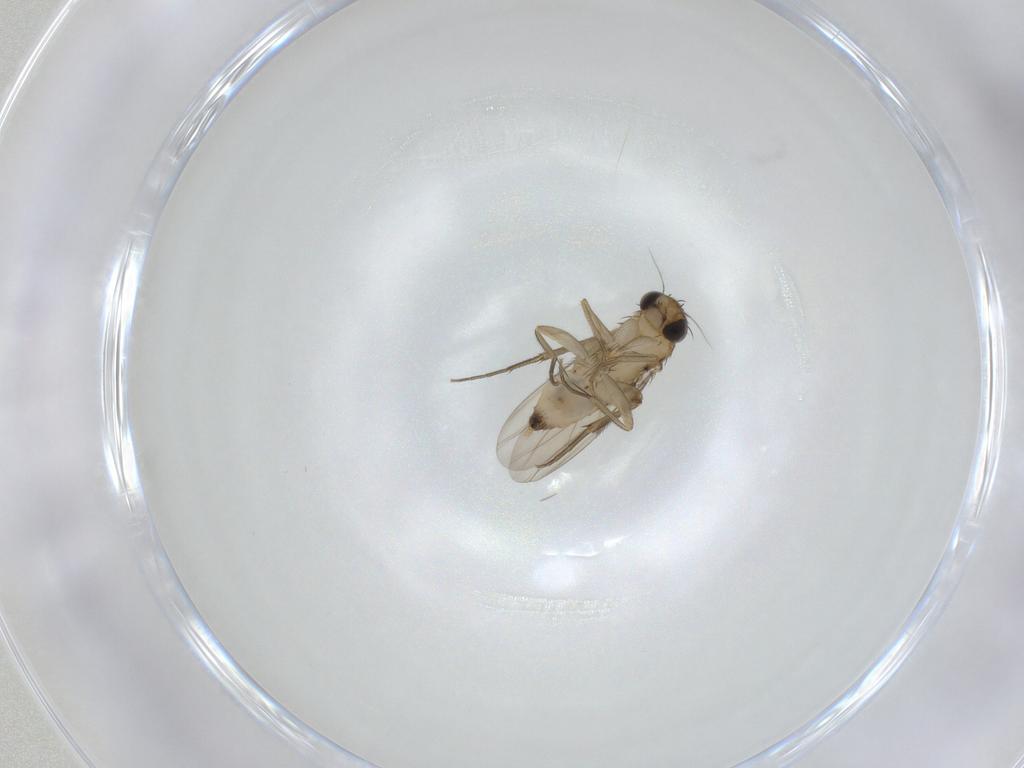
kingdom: Animalia
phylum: Arthropoda
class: Insecta
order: Diptera
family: Phoridae
